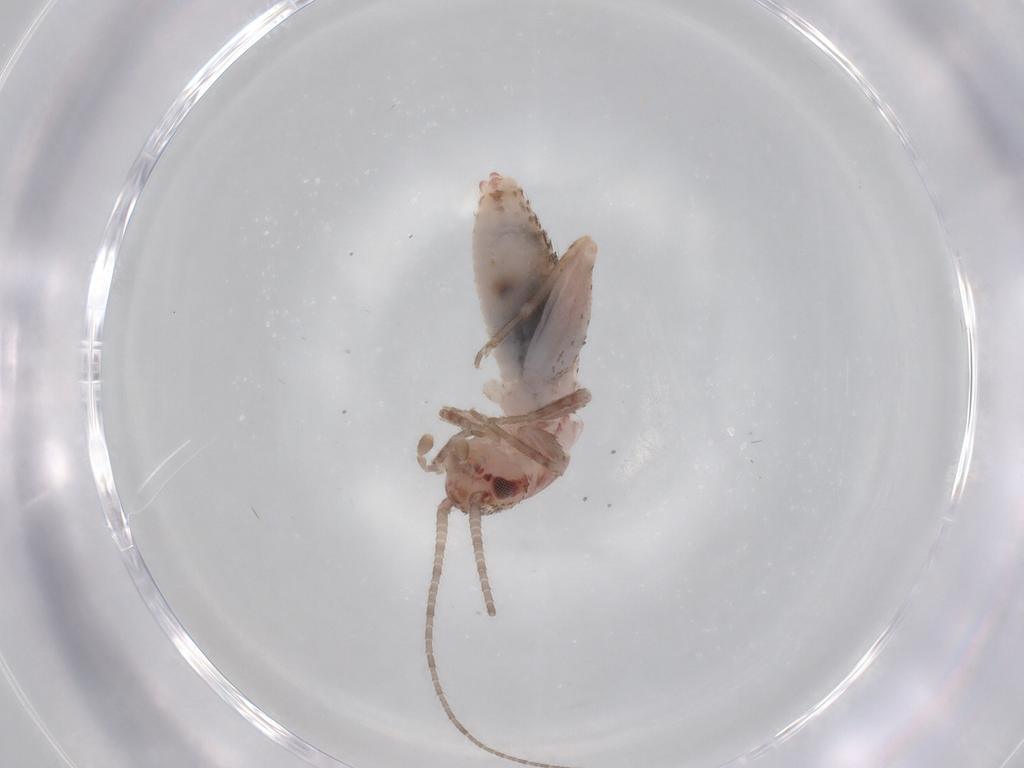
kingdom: Animalia
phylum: Arthropoda
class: Insecta
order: Orthoptera
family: Mogoplistidae
